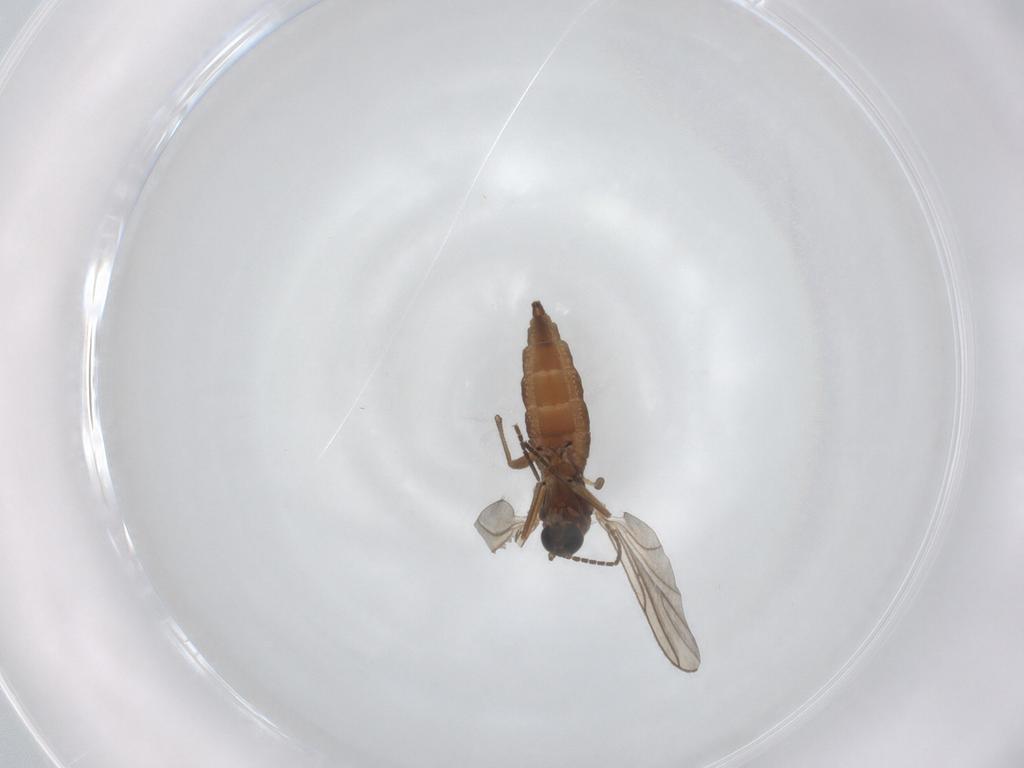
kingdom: Animalia
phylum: Arthropoda
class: Insecta
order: Diptera
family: Sciaridae
